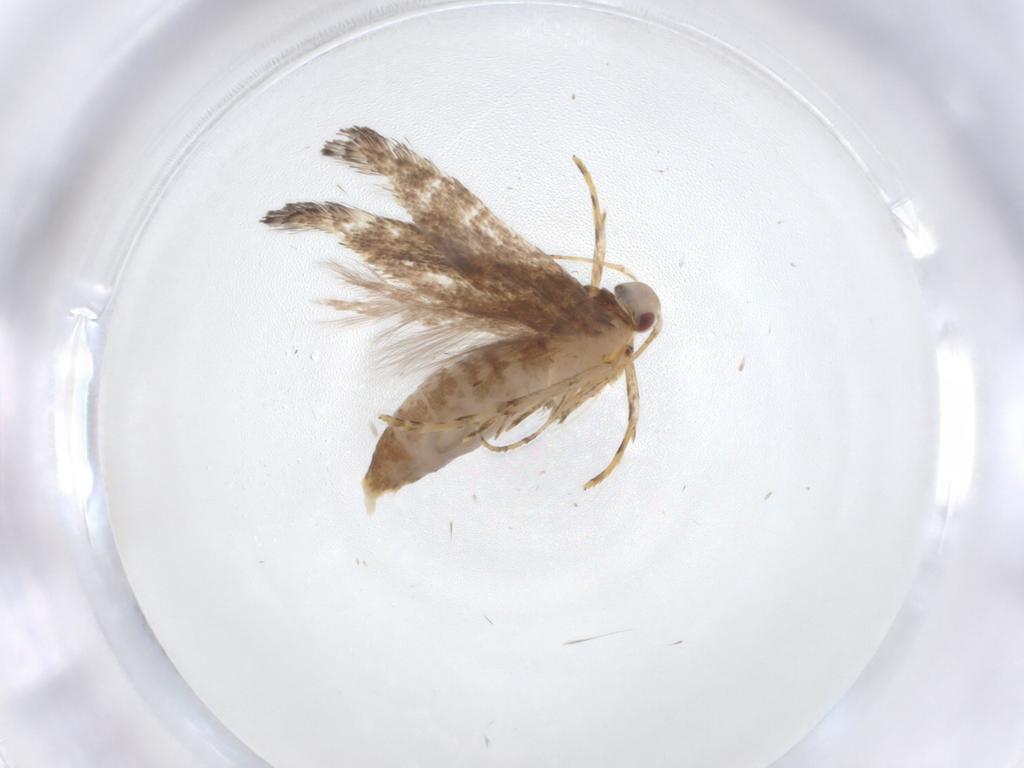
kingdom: Animalia
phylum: Arthropoda
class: Insecta
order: Lepidoptera
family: Cosmopterigidae
